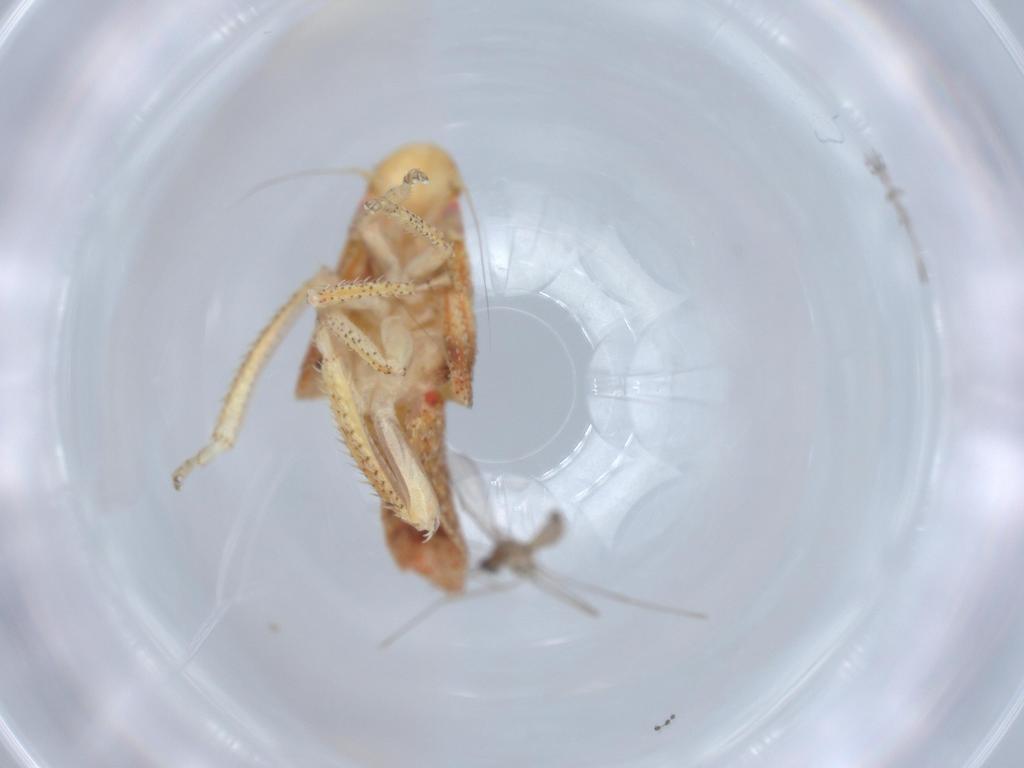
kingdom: Animalia
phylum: Arthropoda
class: Insecta
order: Hemiptera
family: Cicadellidae
